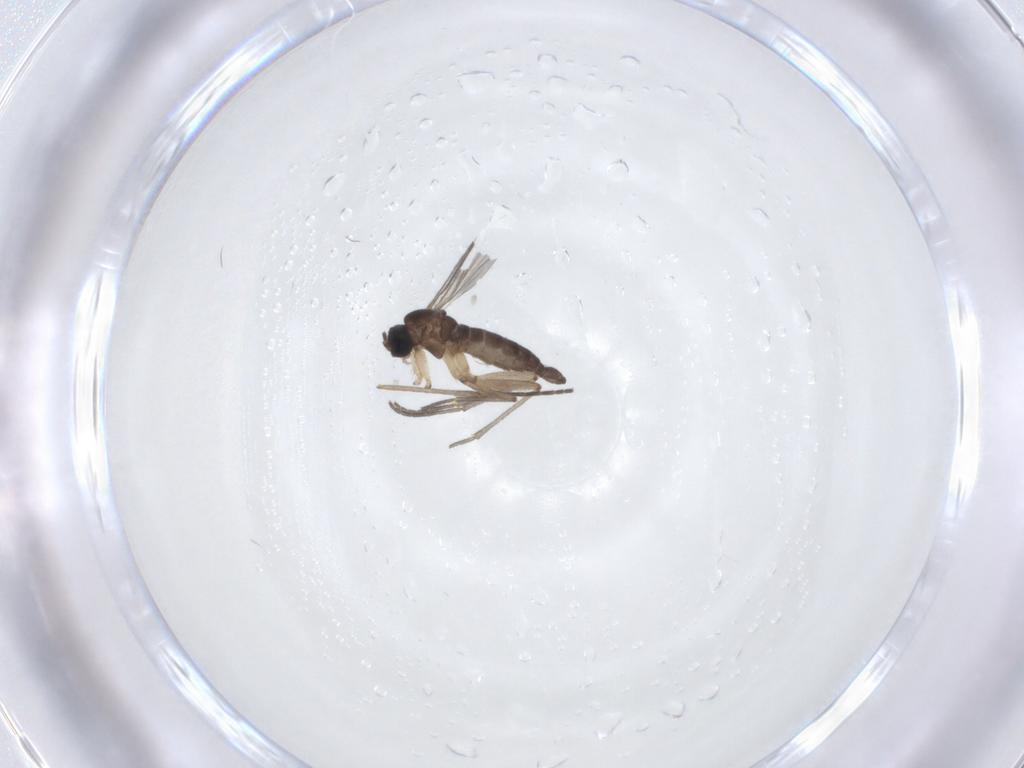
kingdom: Animalia
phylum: Arthropoda
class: Insecta
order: Diptera
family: Sciaridae
